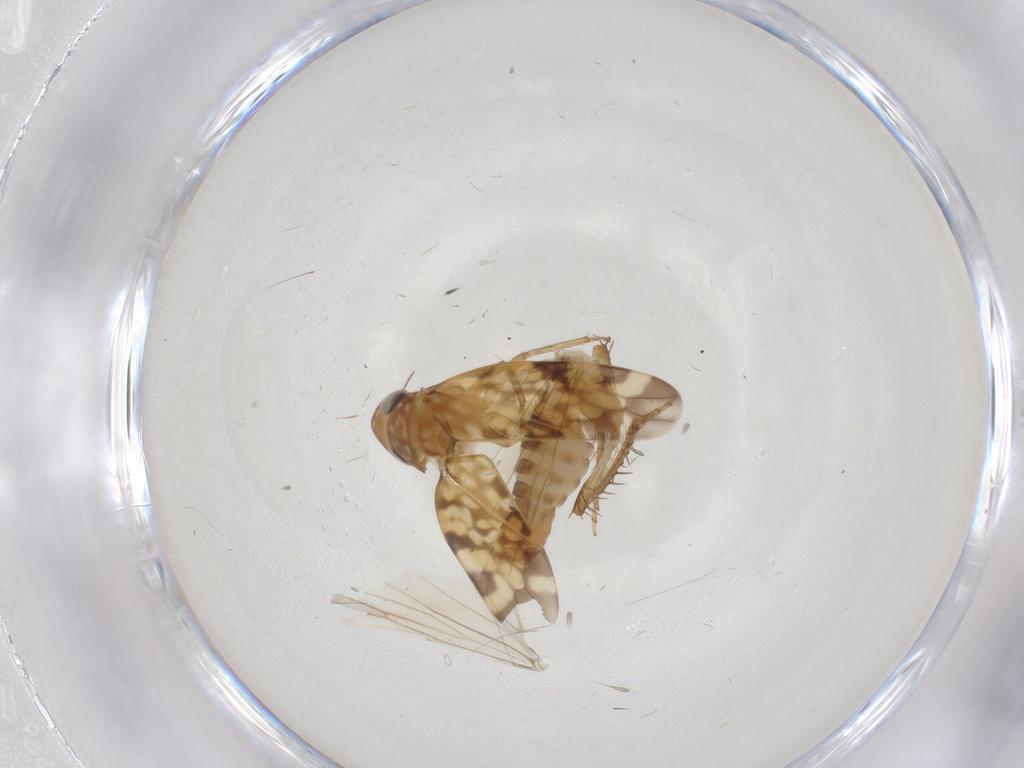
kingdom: Animalia
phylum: Arthropoda
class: Insecta
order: Hemiptera
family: Cicadellidae
